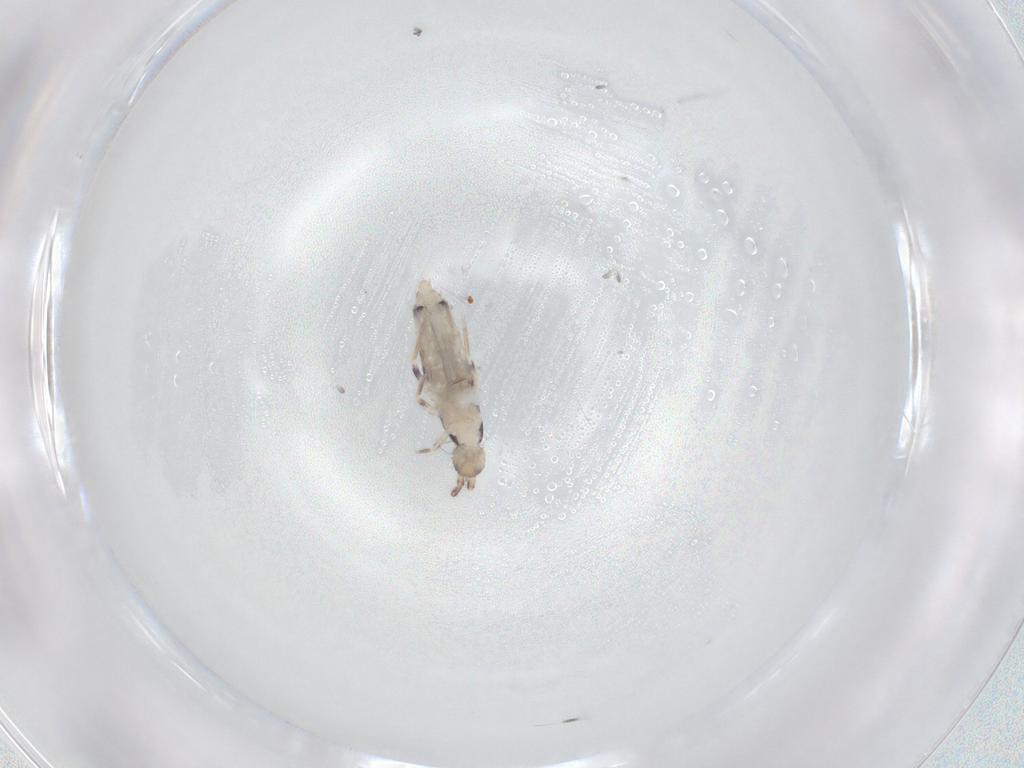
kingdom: Animalia
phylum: Arthropoda
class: Collembola
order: Entomobryomorpha
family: Entomobryidae
